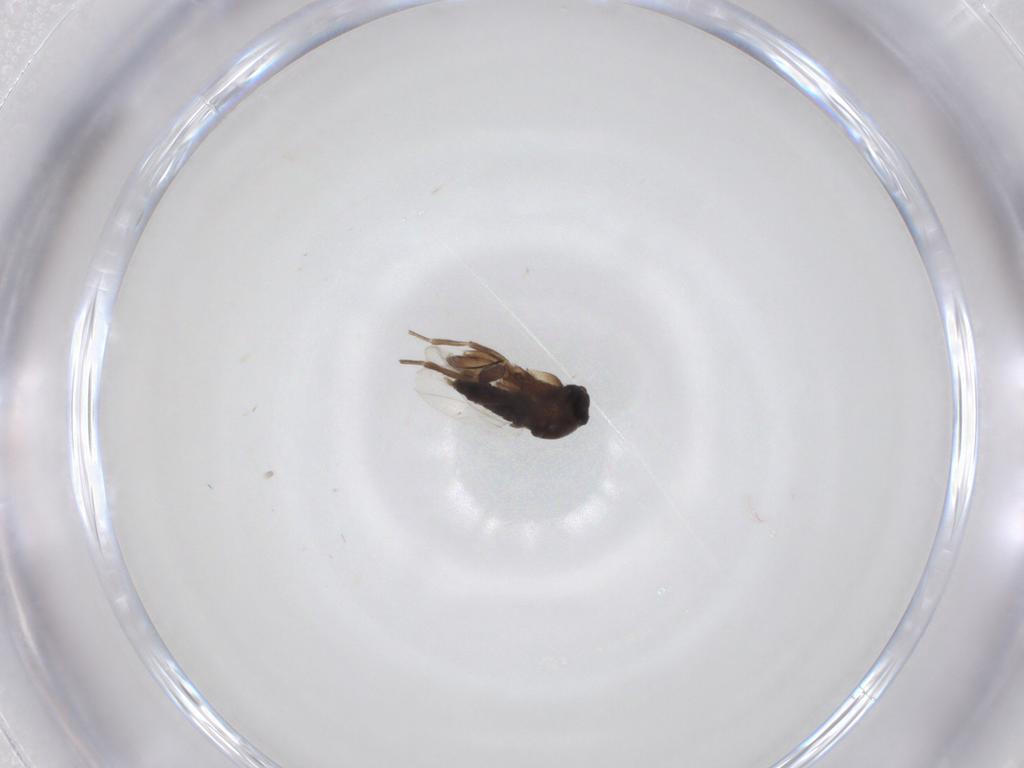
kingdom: Animalia
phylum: Arthropoda
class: Insecta
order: Diptera
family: Phoridae
